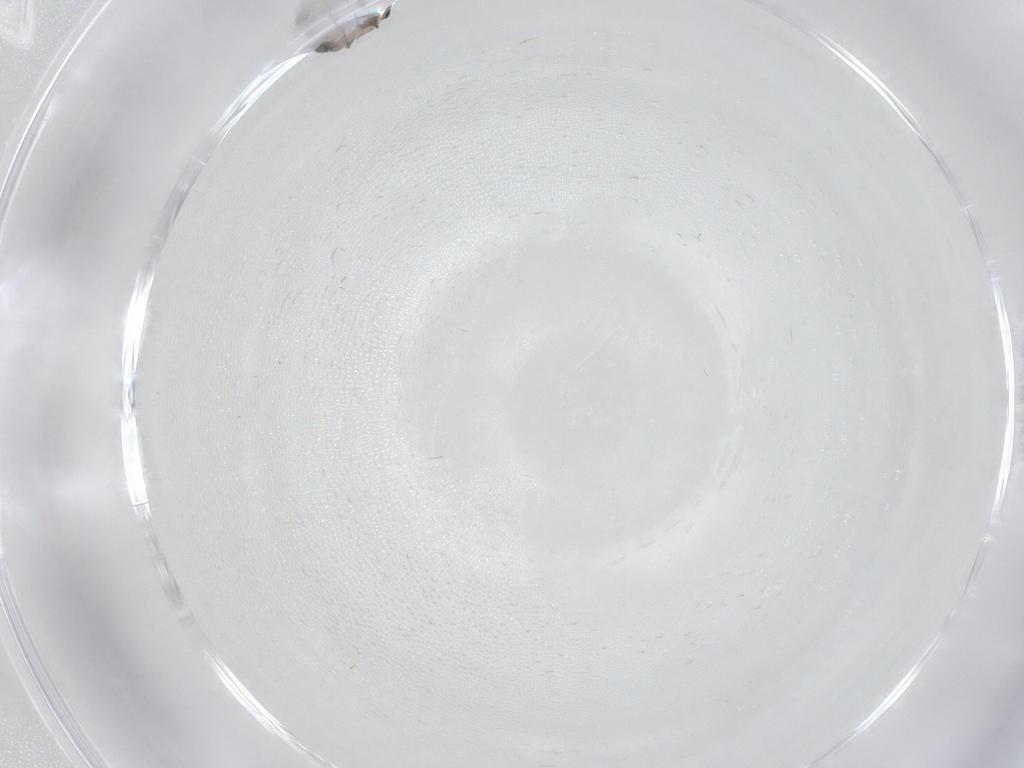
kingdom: Animalia
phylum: Arthropoda
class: Insecta
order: Diptera
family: Chironomidae
